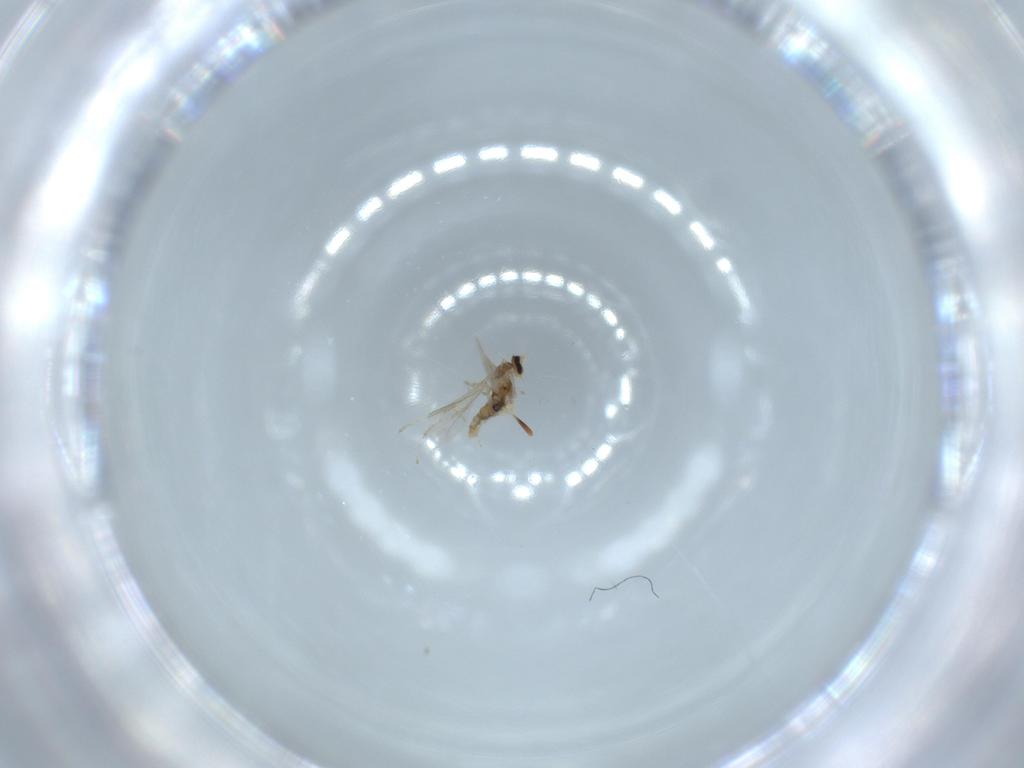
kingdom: Animalia
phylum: Arthropoda
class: Insecta
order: Diptera
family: Cecidomyiidae
